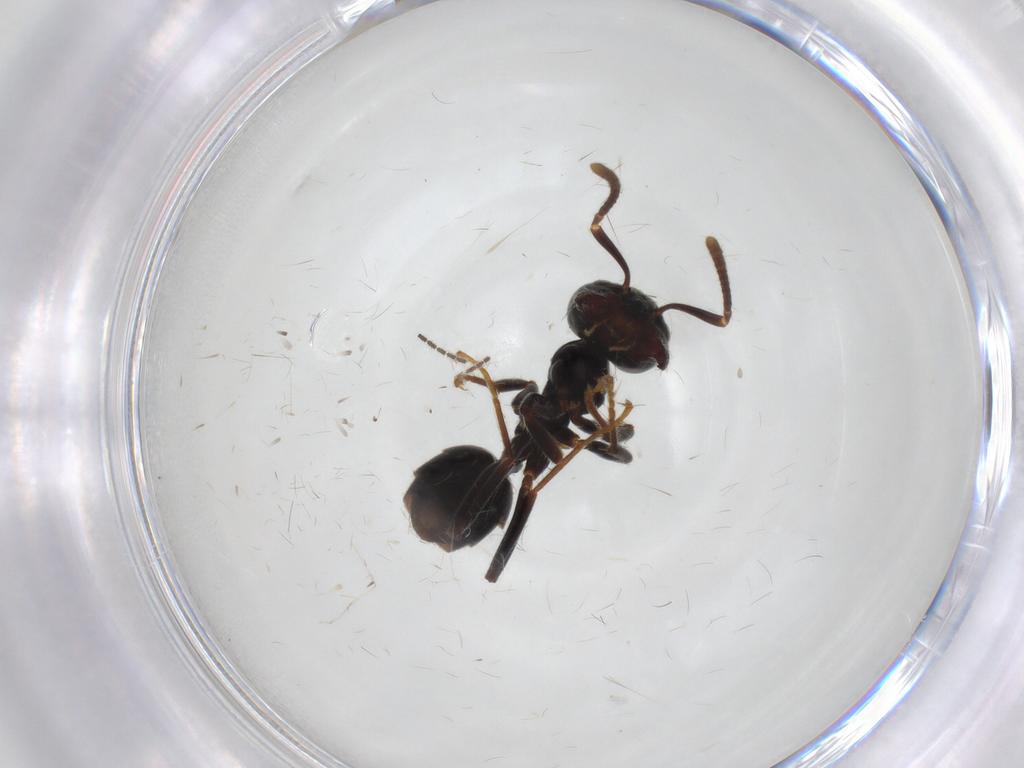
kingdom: Animalia
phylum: Arthropoda
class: Insecta
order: Hymenoptera
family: Formicidae
